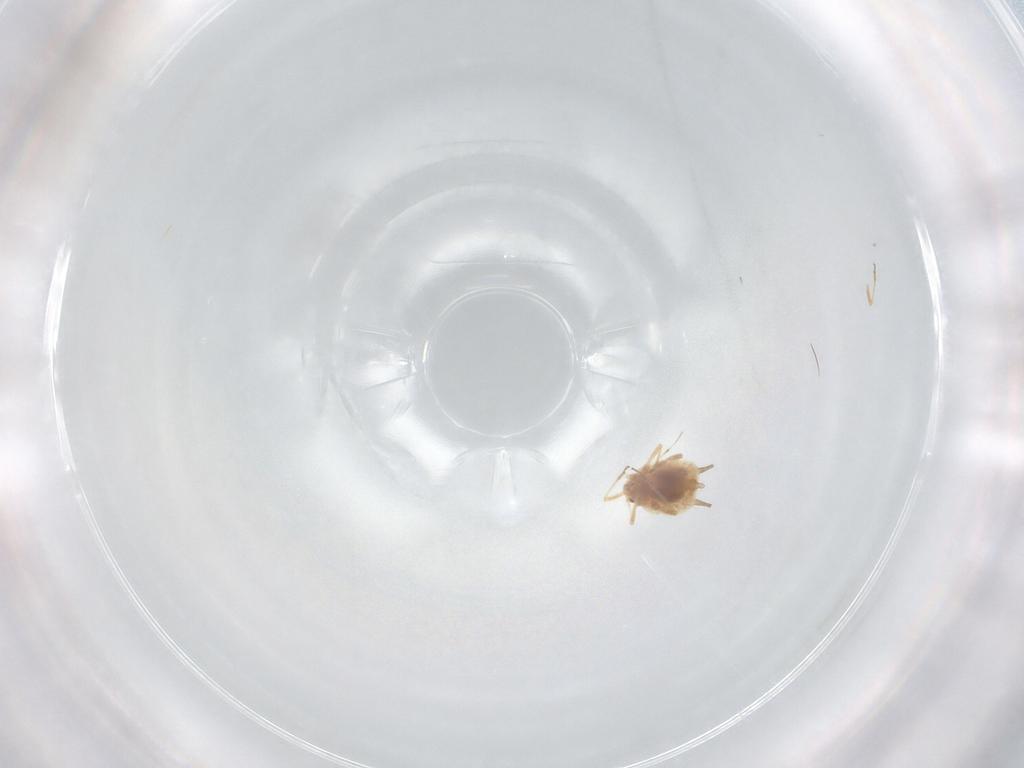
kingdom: Animalia
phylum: Arthropoda
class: Insecta
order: Hemiptera
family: Aphididae
